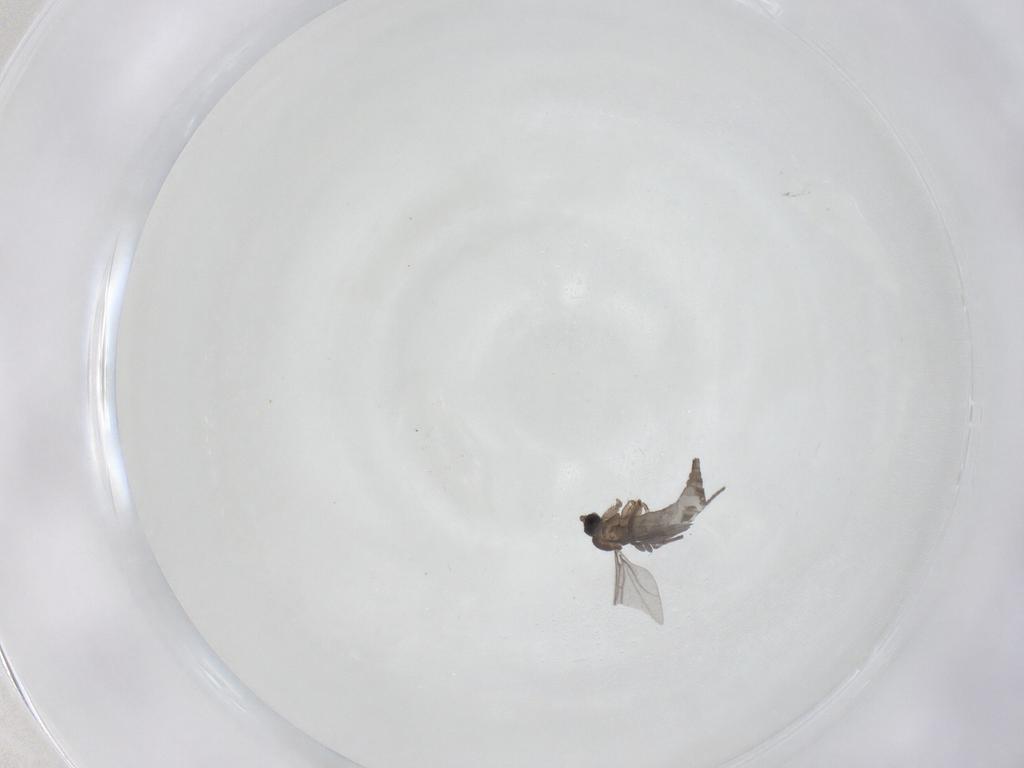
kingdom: Animalia
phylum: Arthropoda
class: Insecta
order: Diptera
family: Sciaridae
